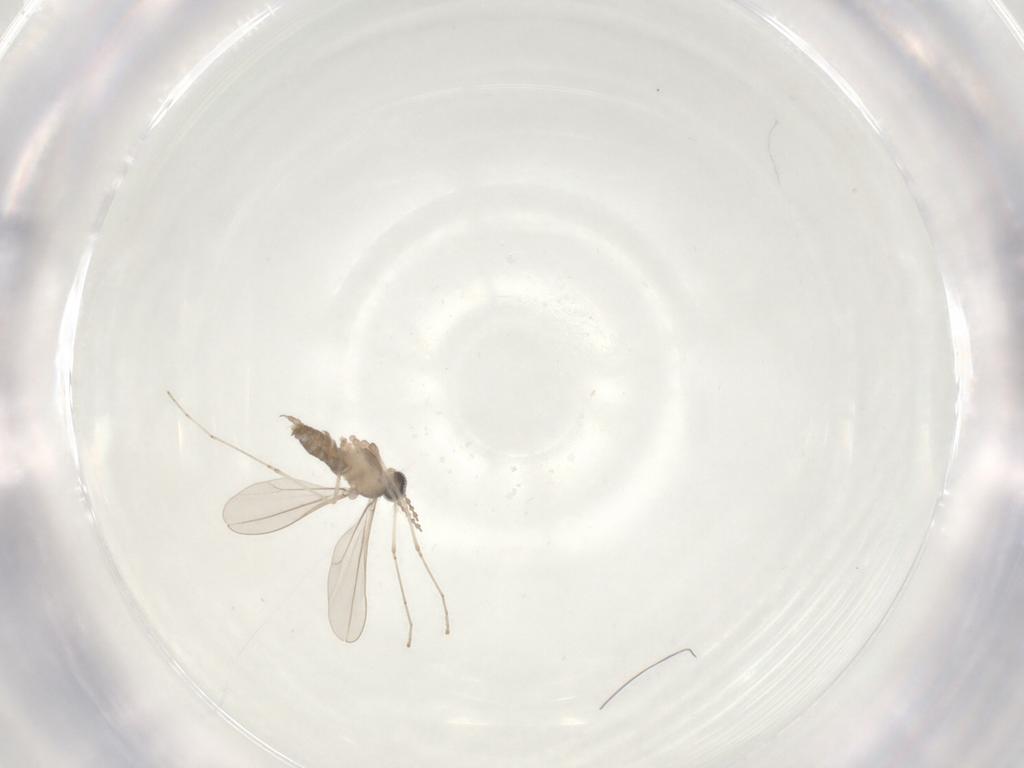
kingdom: Animalia
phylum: Arthropoda
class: Insecta
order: Diptera
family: Cecidomyiidae
